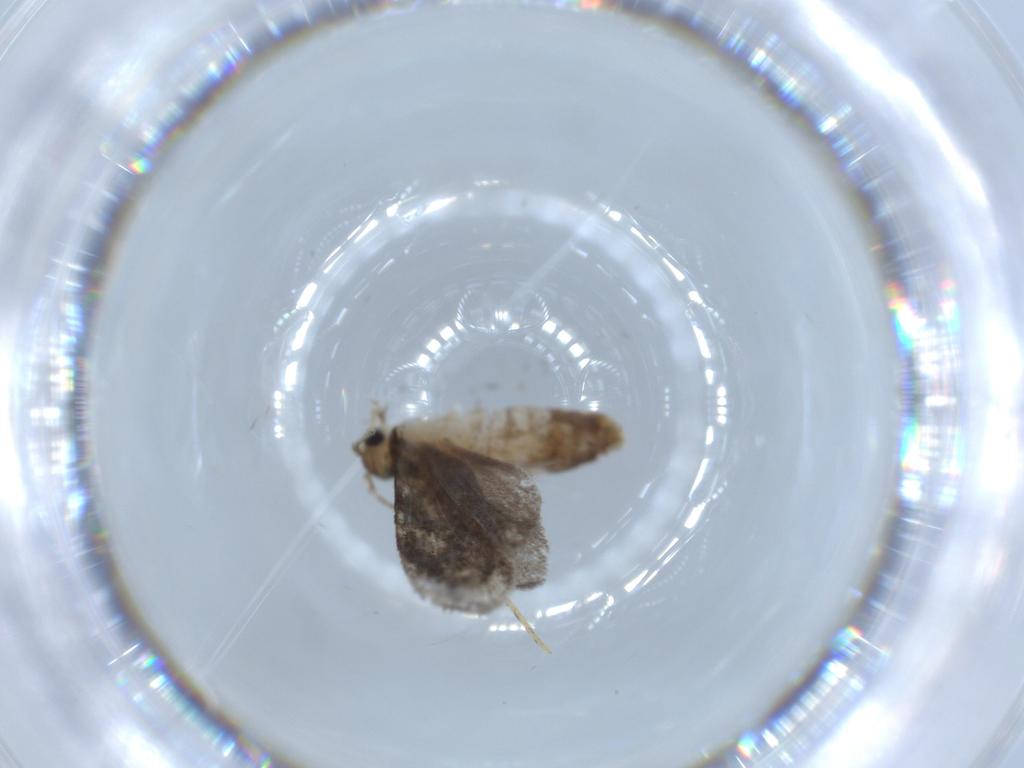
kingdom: Animalia
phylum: Arthropoda
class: Insecta
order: Lepidoptera
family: Tineidae
